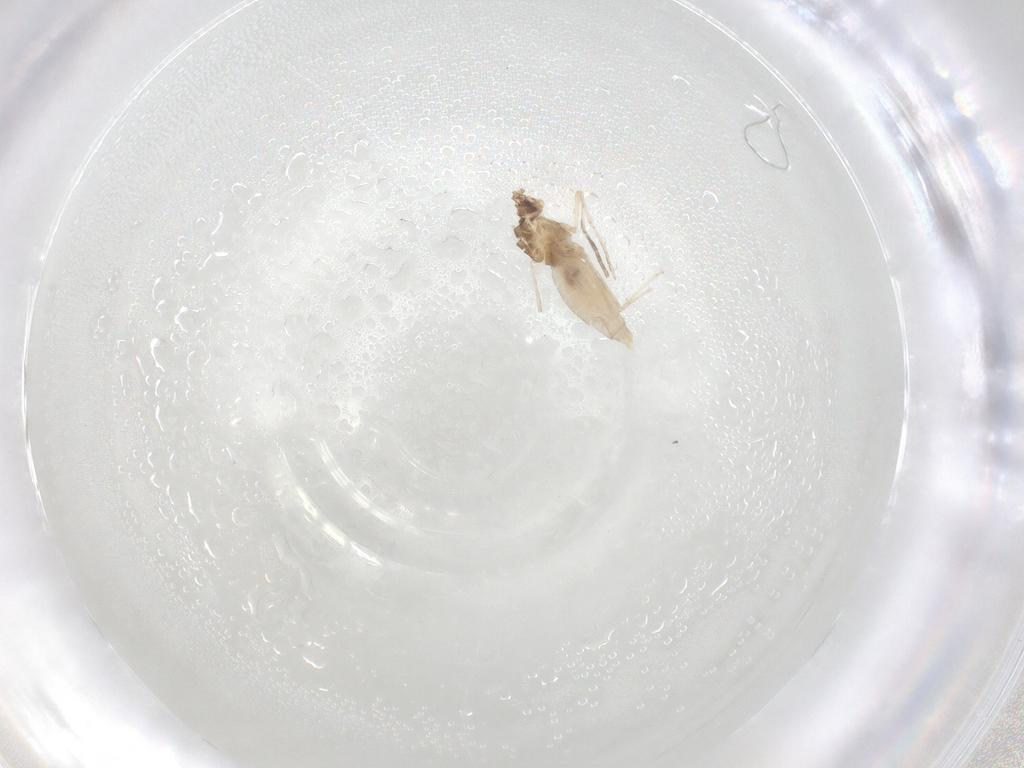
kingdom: Animalia
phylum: Arthropoda
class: Insecta
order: Diptera
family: Cecidomyiidae
